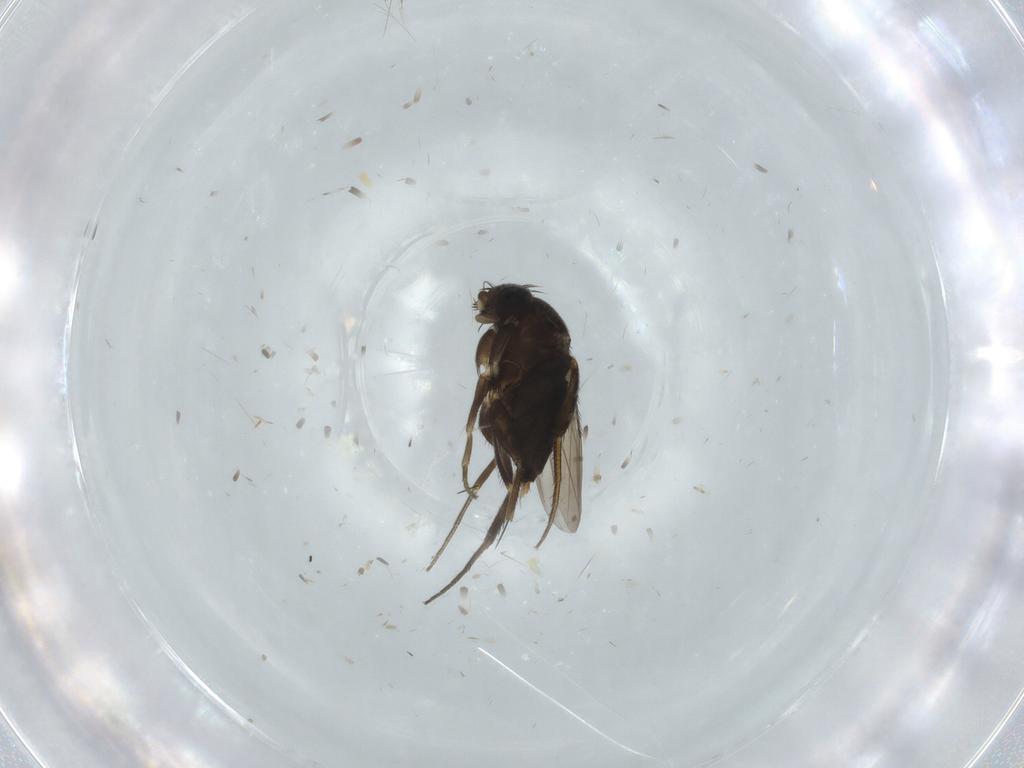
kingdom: Animalia
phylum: Arthropoda
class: Insecta
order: Diptera
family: Phoridae
